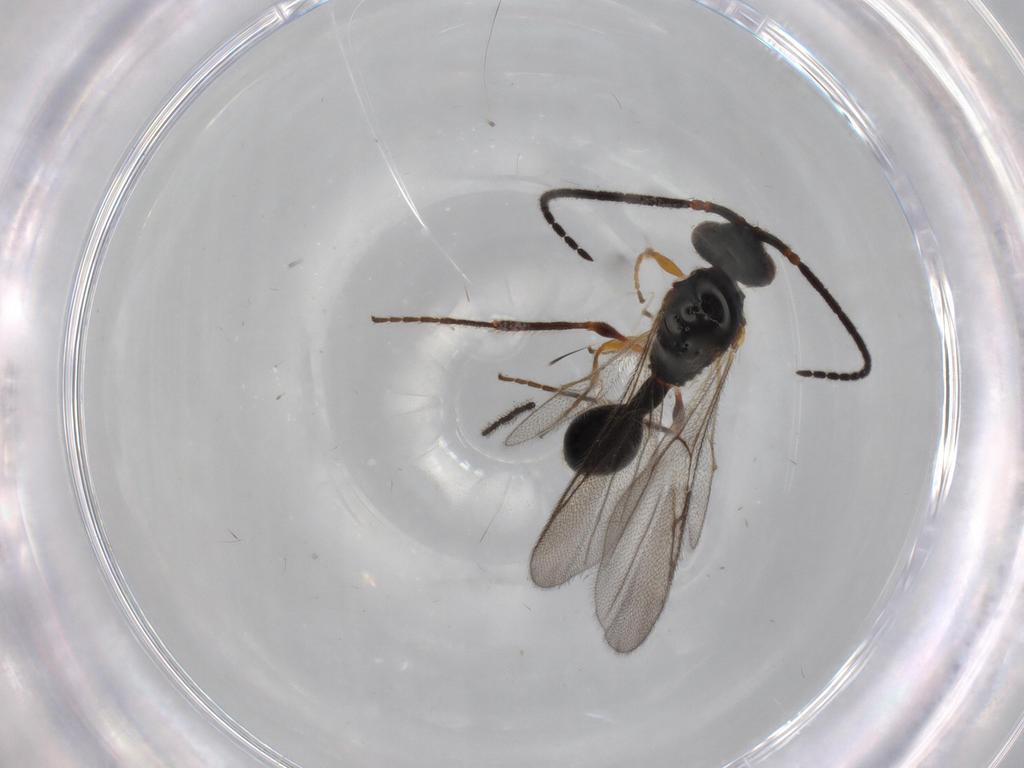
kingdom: Animalia
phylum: Arthropoda
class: Insecta
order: Hymenoptera
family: Diapriidae
